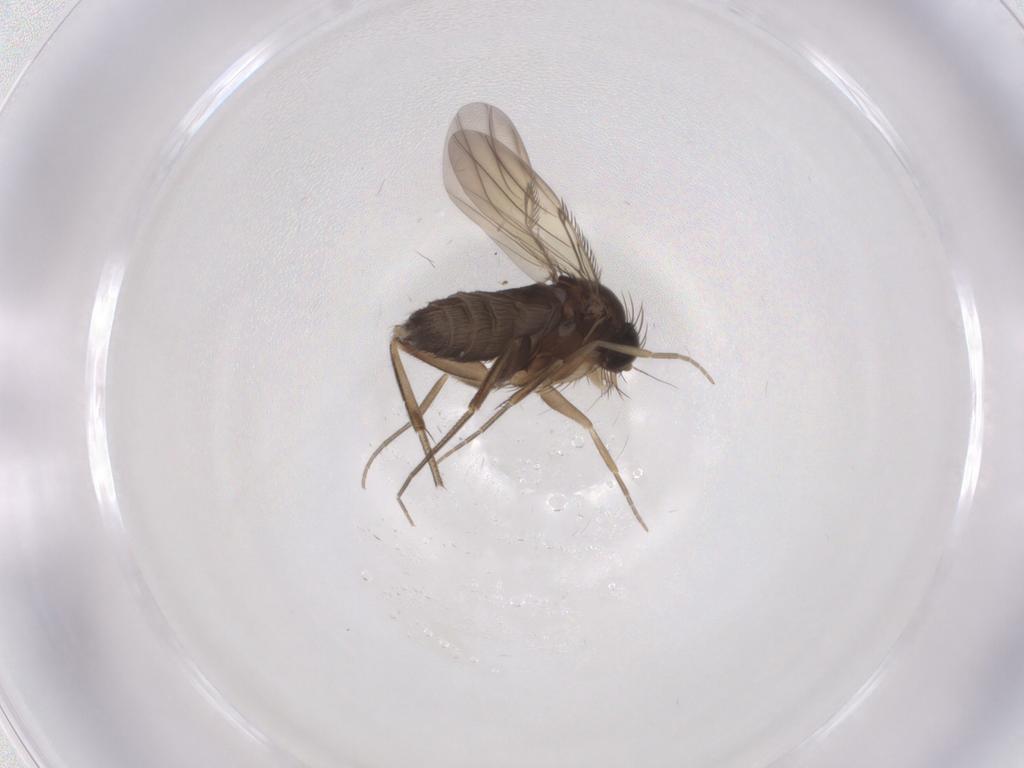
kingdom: Animalia
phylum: Arthropoda
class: Insecta
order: Diptera
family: Phoridae
